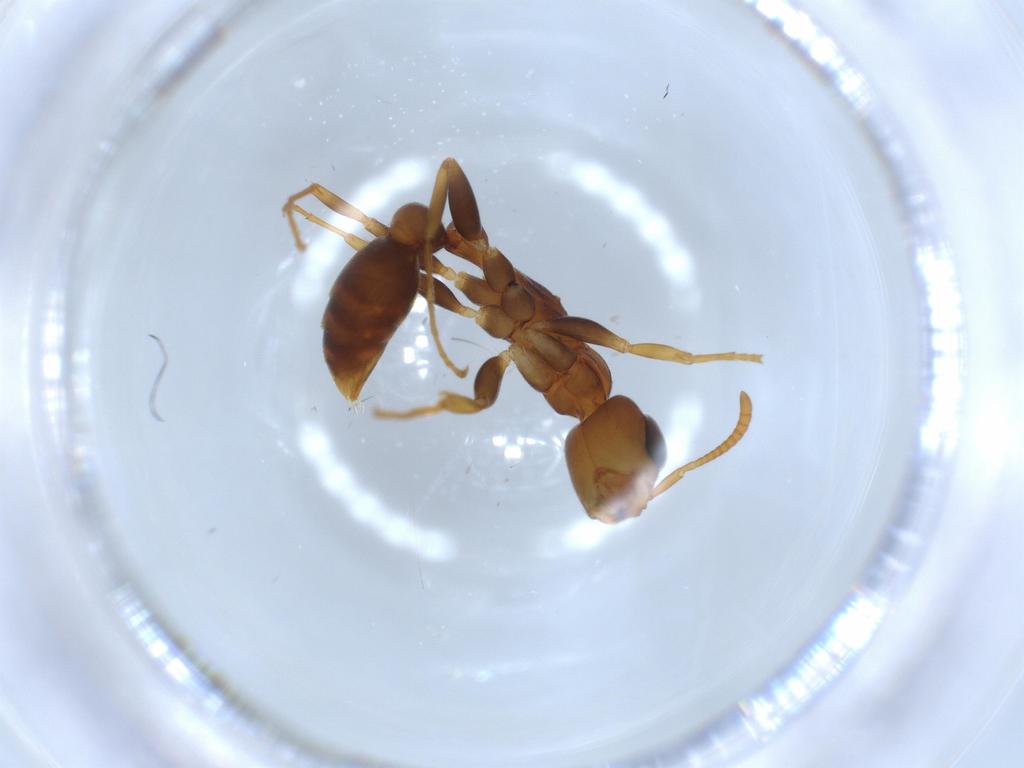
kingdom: Animalia
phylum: Arthropoda
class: Insecta
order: Hymenoptera
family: Formicidae
